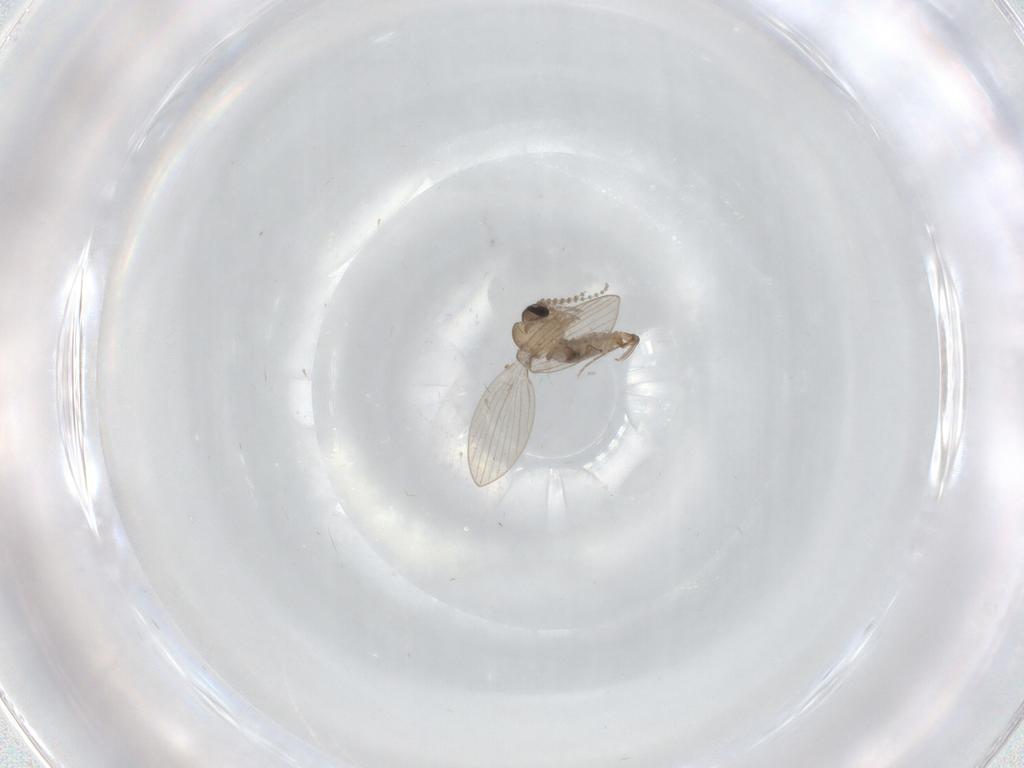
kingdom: Animalia
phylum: Arthropoda
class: Insecta
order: Diptera
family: Psychodidae
